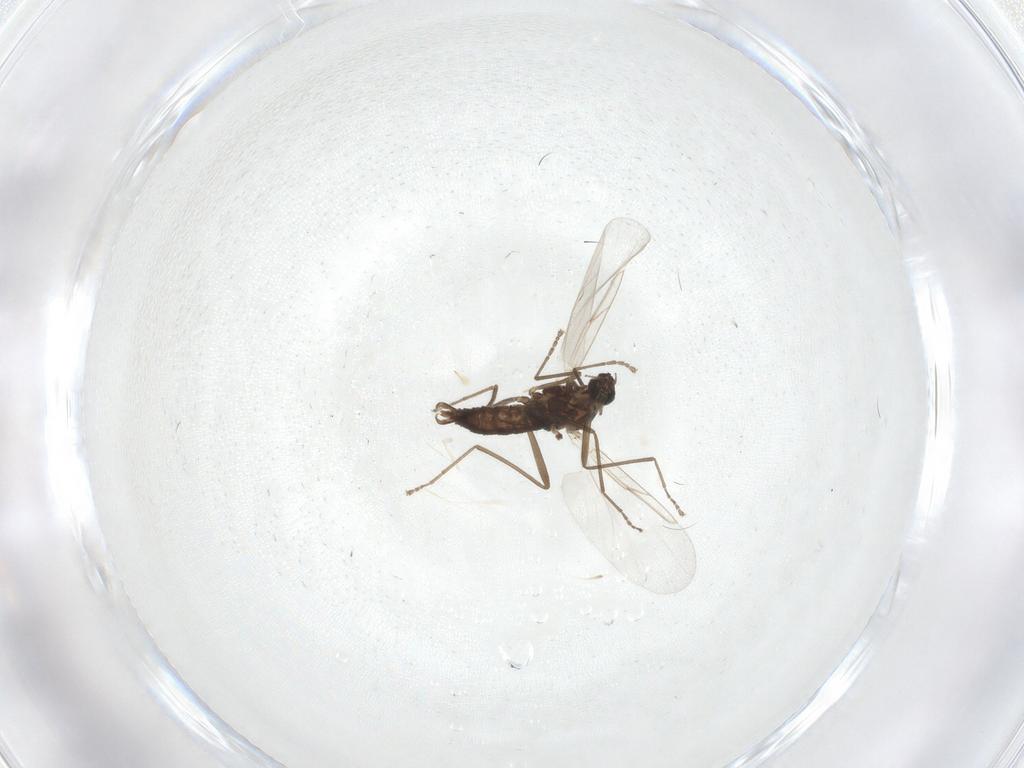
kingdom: Animalia
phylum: Arthropoda
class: Insecta
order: Diptera
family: Cecidomyiidae
